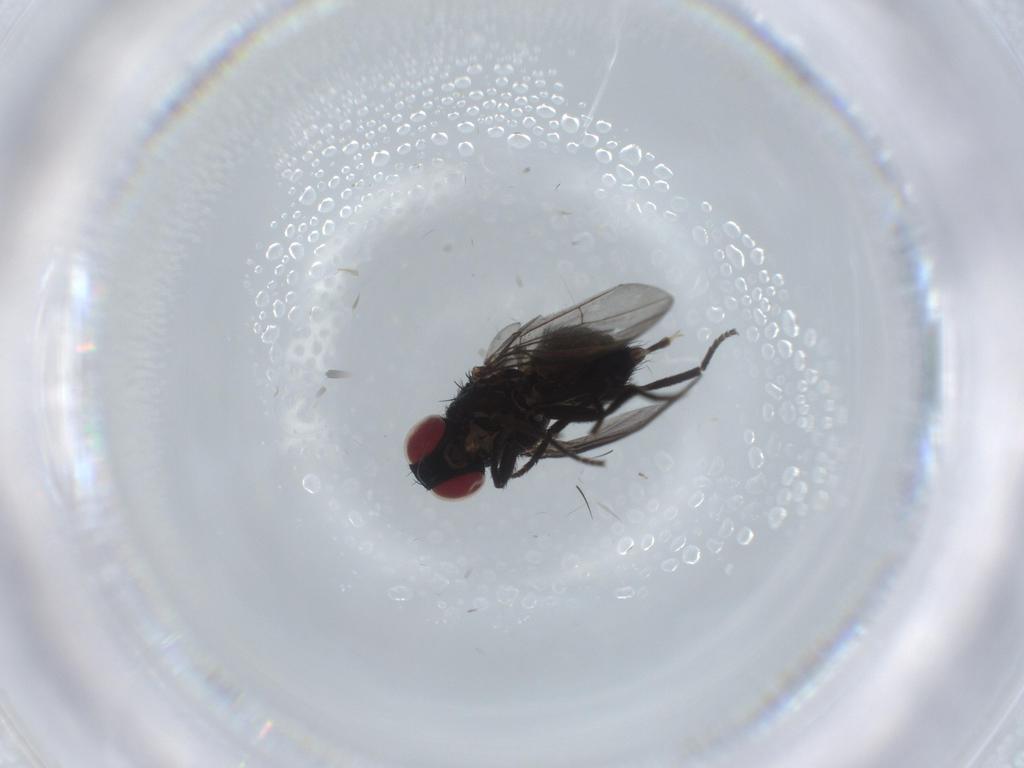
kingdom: Animalia
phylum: Arthropoda
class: Insecta
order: Diptera
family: Agromyzidae
